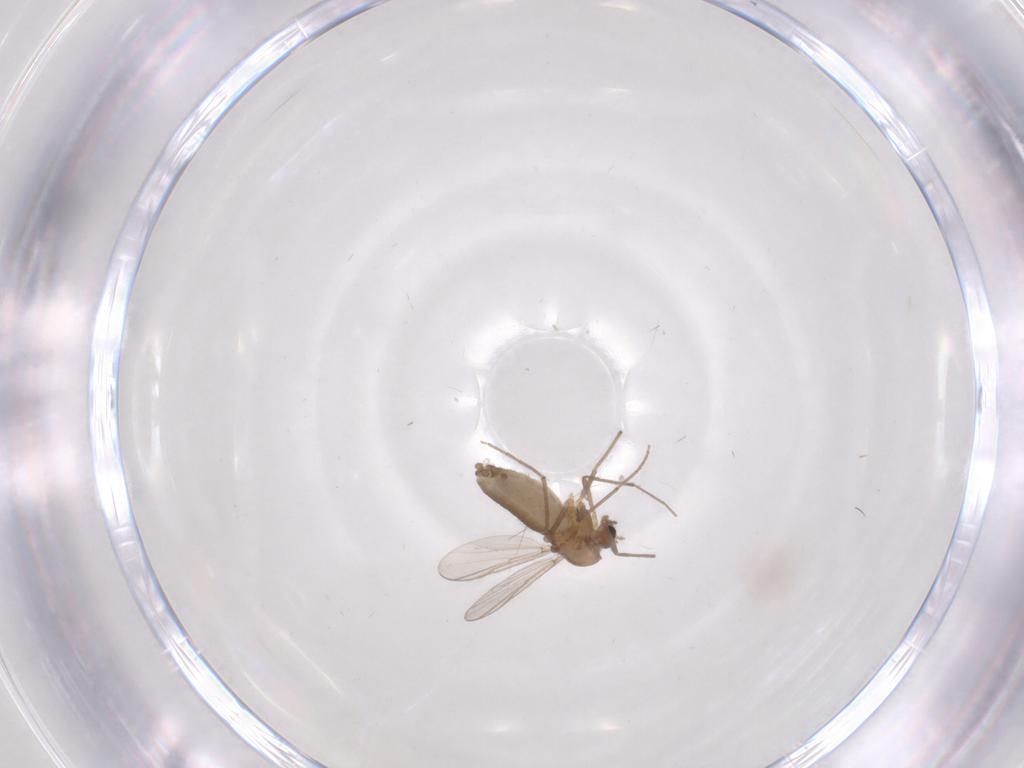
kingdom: Animalia
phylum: Arthropoda
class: Insecta
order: Diptera
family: Chironomidae
